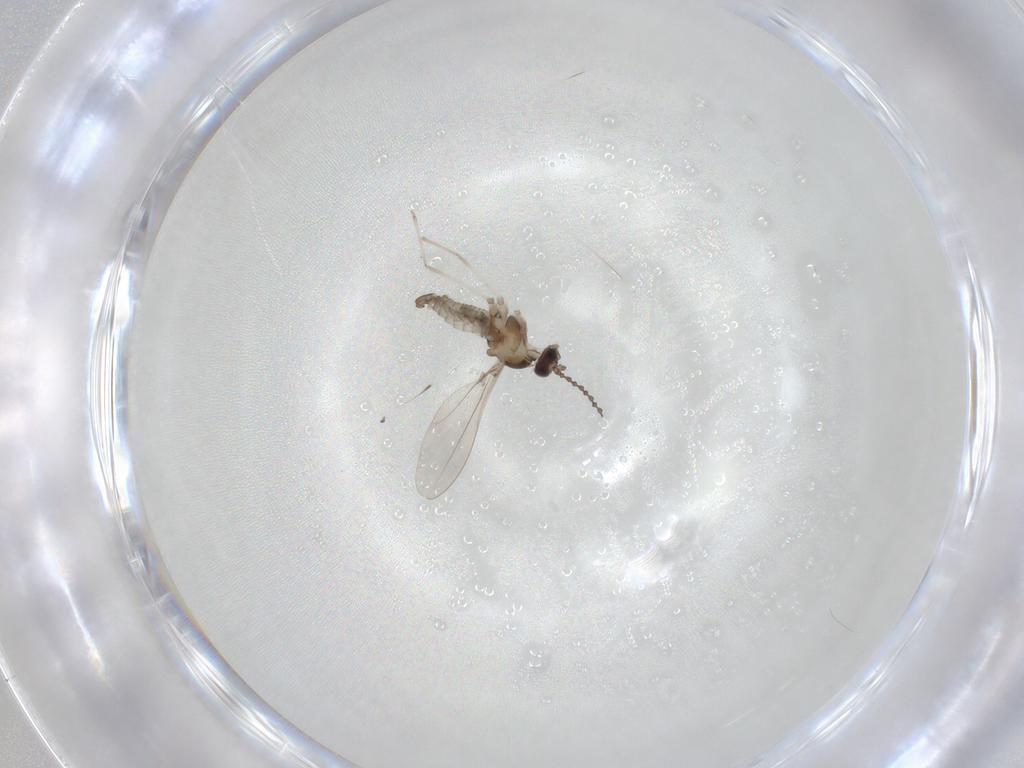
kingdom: Animalia
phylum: Arthropoda
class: Insecta
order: Diptera
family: Cecidomyiidae
